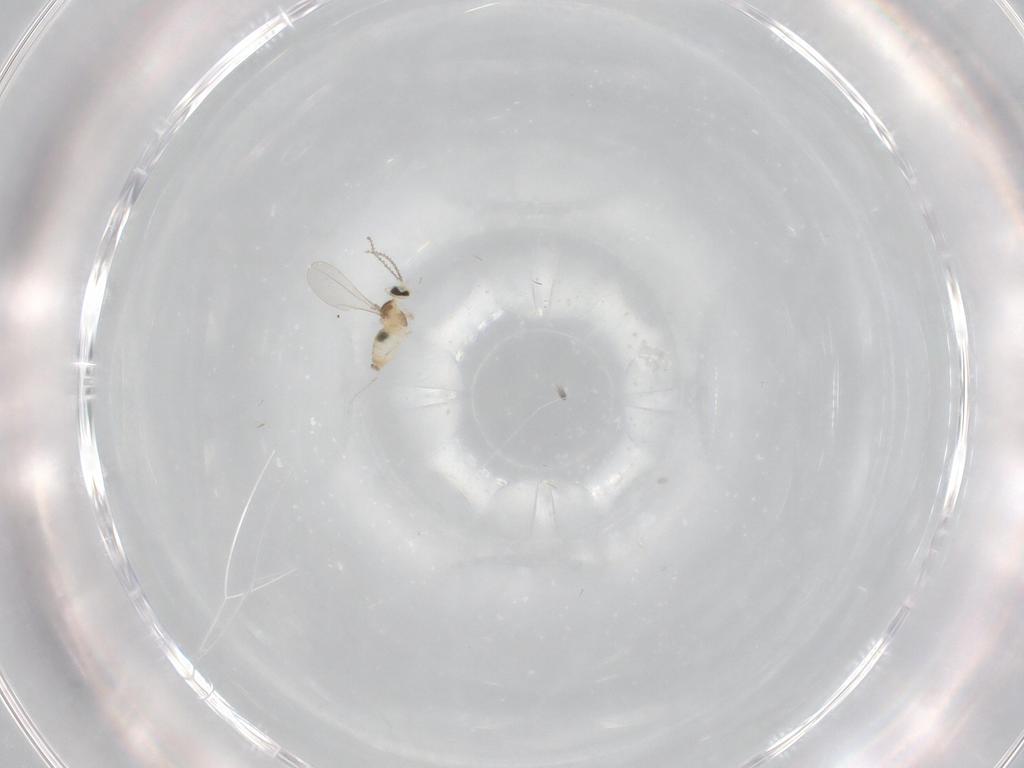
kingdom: Animalia
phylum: Arthropoda
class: Insecta
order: Diptera
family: Cecidomyiidae
